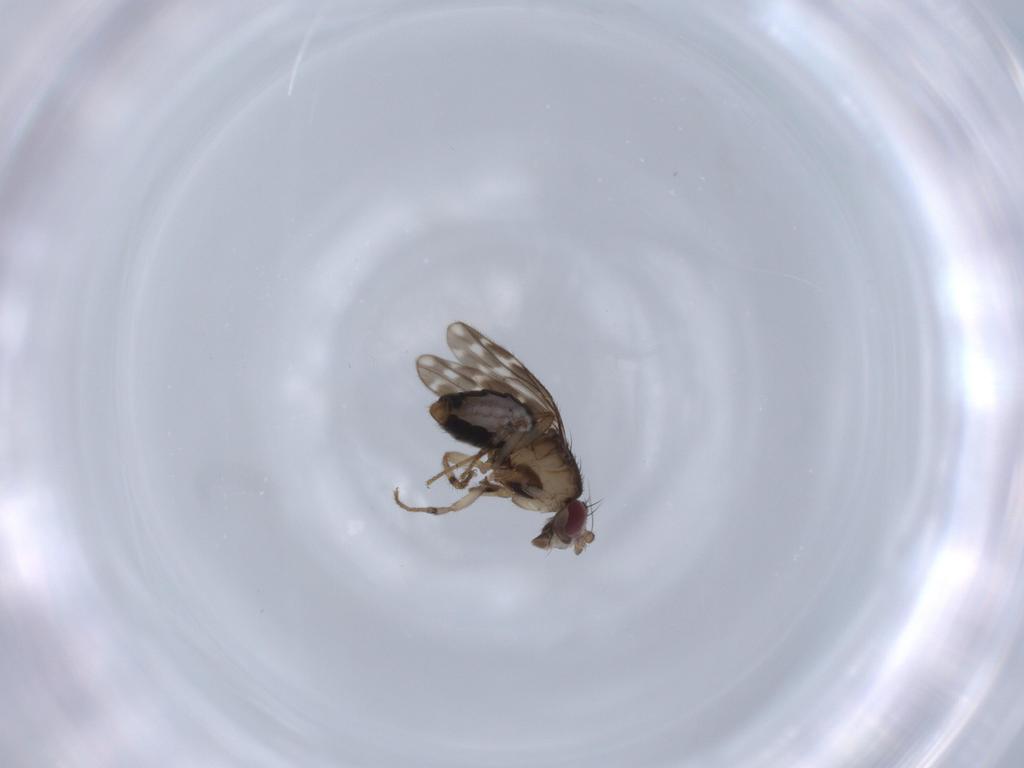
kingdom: Animalia
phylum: Arthropoda
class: Insecta
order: Diptera
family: Sphaeroceridae
